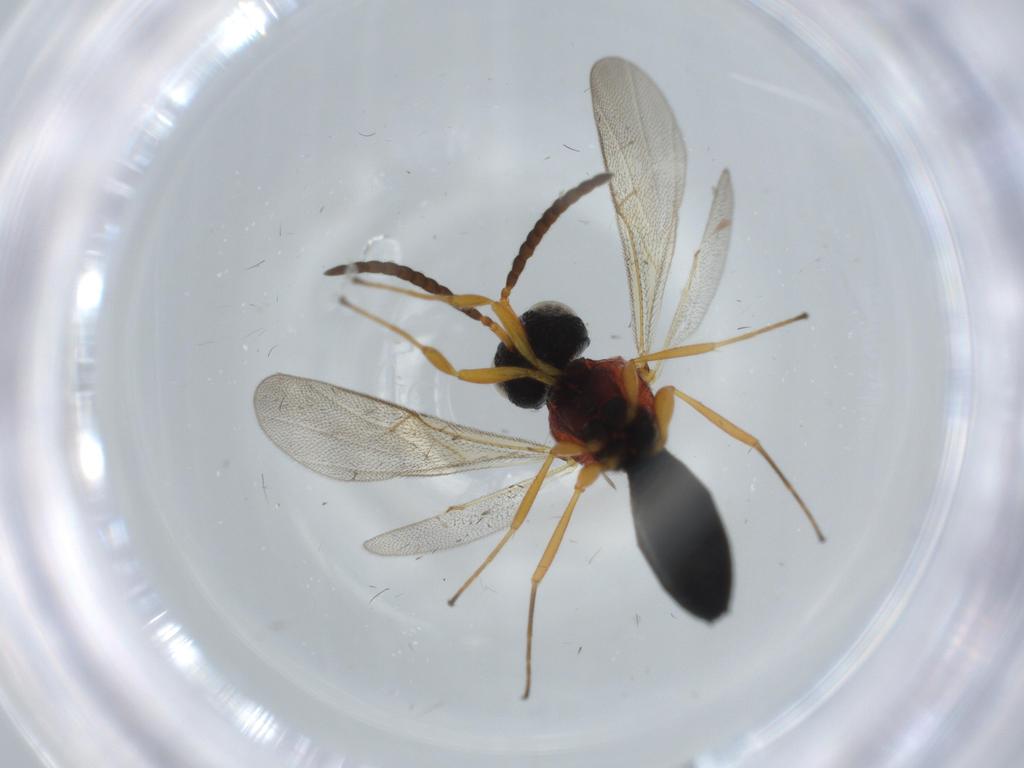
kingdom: Animalia
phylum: Arthropoda
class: Insecta
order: Hymenoptera
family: Scelionidae
